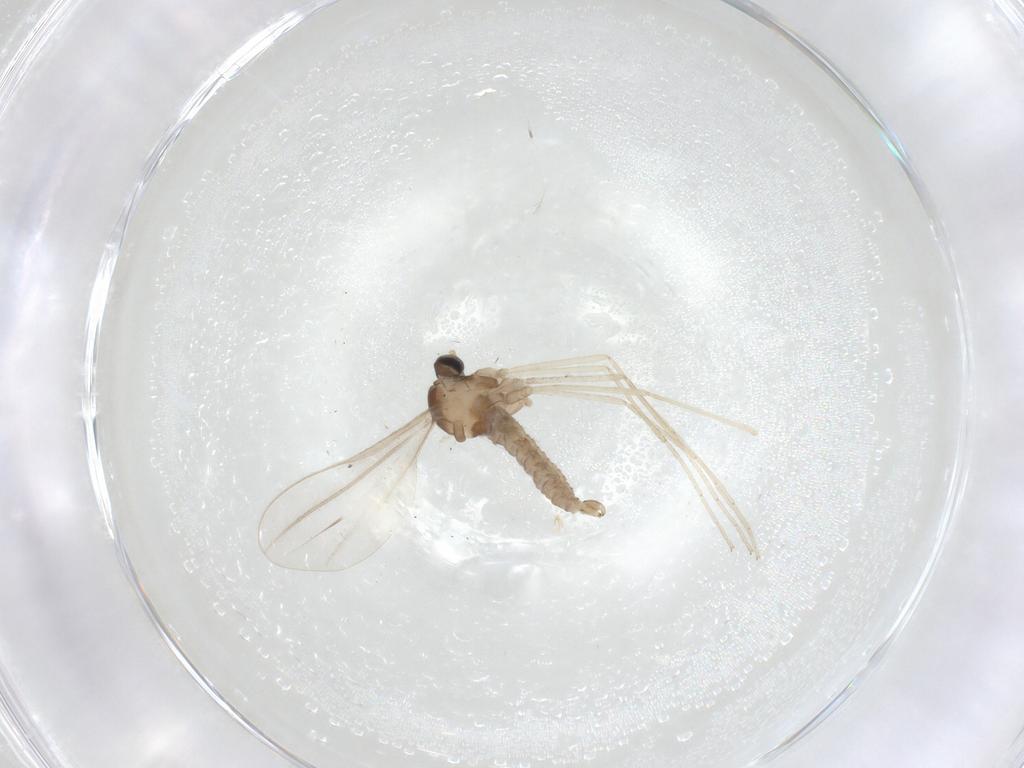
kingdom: Animalia
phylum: Arthropoda
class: Insecta
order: Diptera
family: Cecidomyiidae
